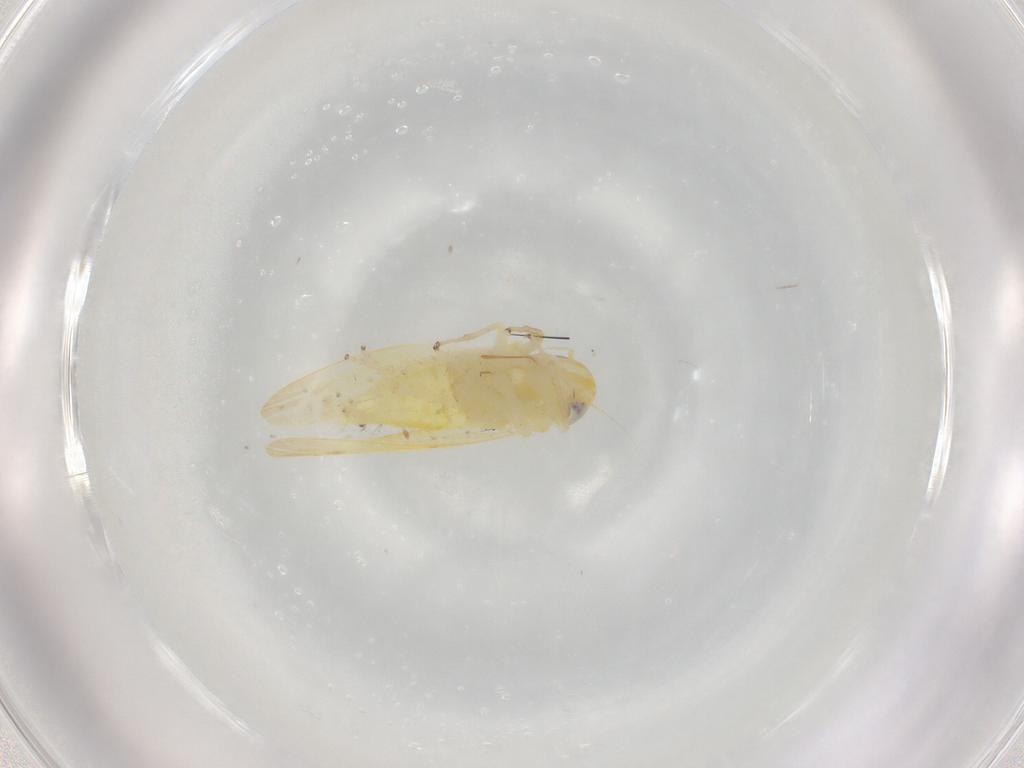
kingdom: Animalia
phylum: Arthropoda
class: Insecta
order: Hemiptera
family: Cicadellidae
